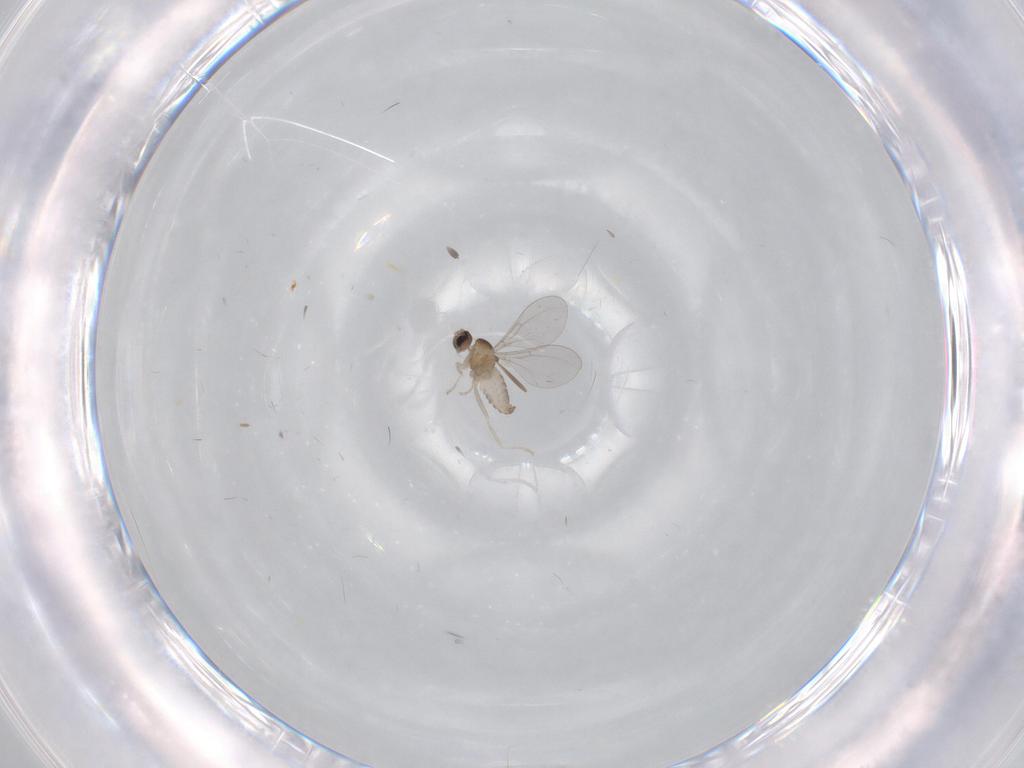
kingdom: Animalia
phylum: Arthropoda
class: Insecta
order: Diptera
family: Cecidomyiidae
